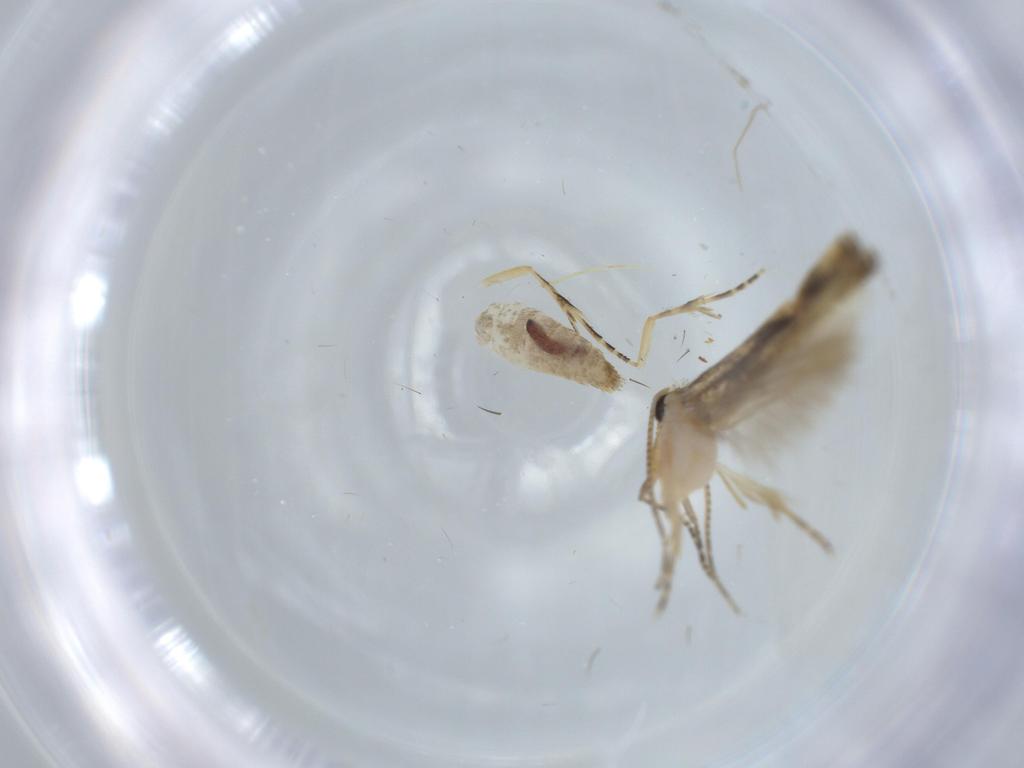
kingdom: Animalia
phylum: Arthropoda
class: Insecta
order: Lepidoptera
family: Bucculatricidae
